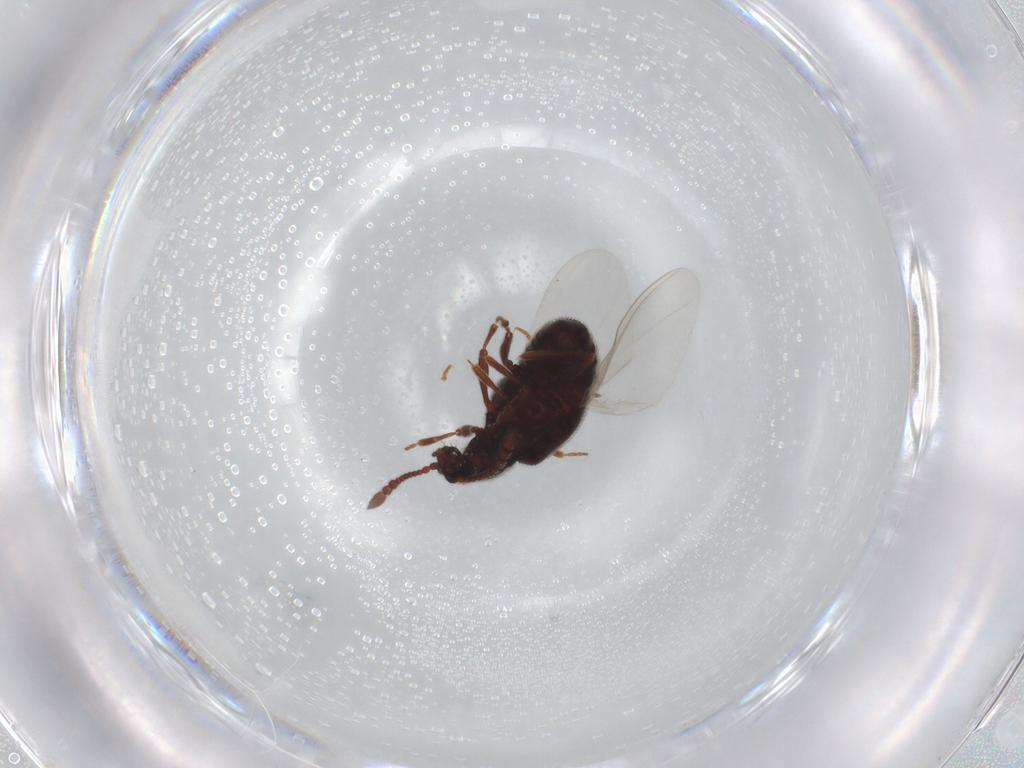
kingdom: Animalia
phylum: Arthropoda
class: Insecta
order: Coleoptera
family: Staphylinidae
